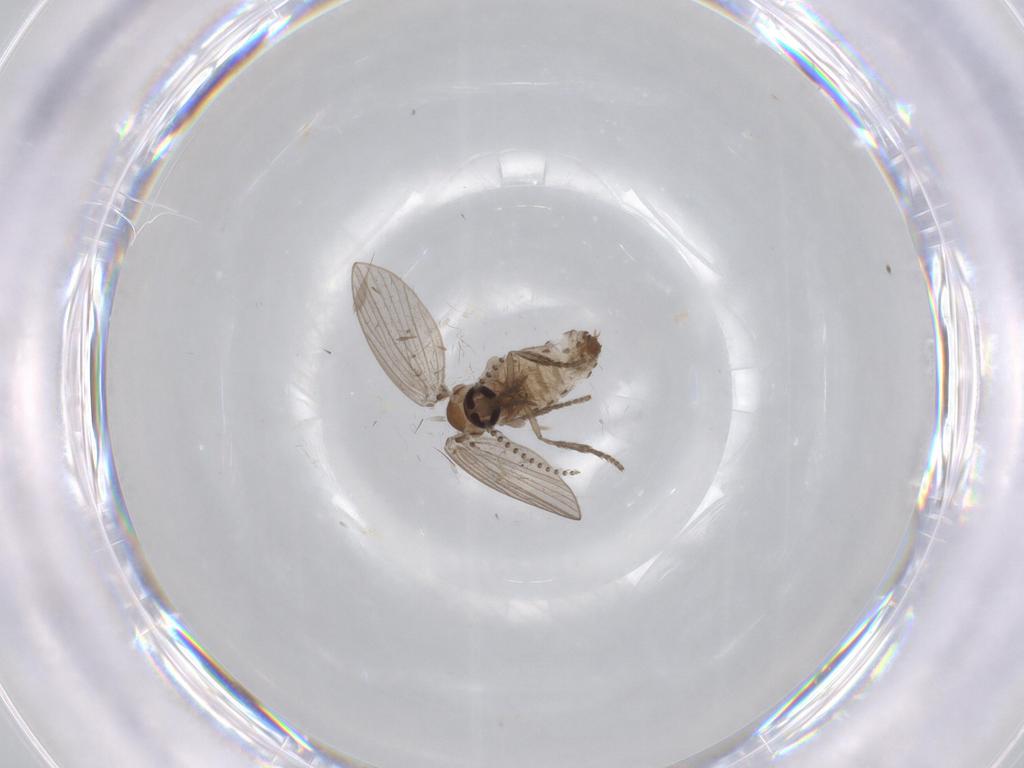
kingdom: Animalia
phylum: Arthropoda
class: Insecta
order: Diptera
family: Psychodidae
